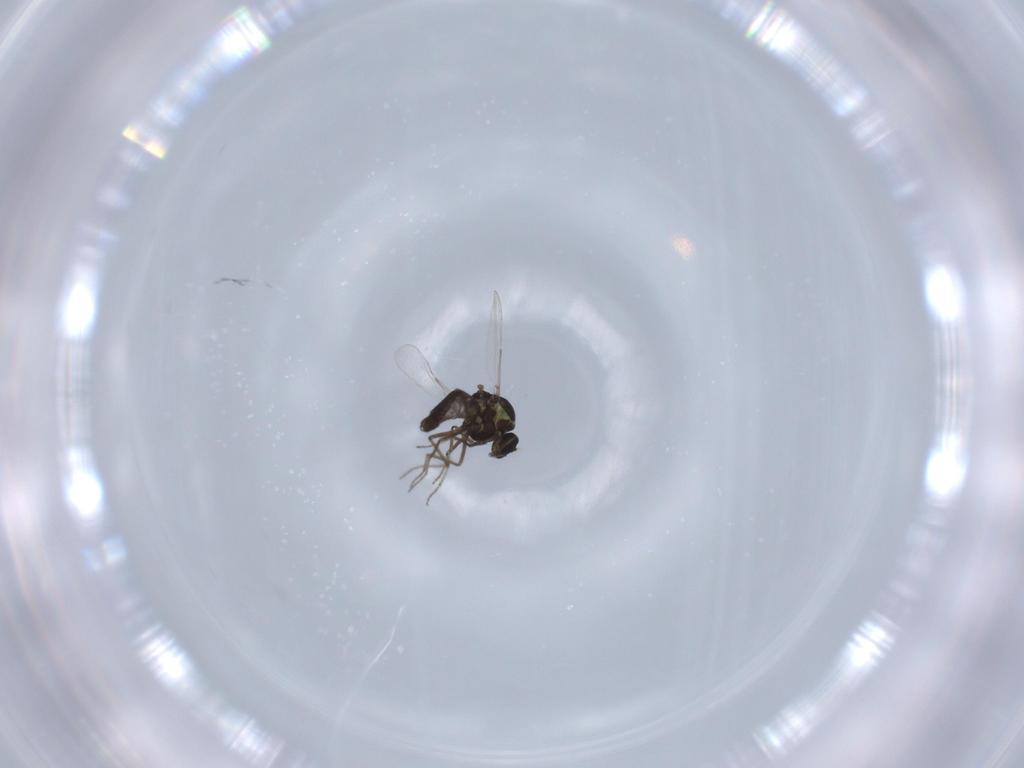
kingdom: Animalia
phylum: Arthropoda
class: Insecta
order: Diptera
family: Ceratopogonidae
